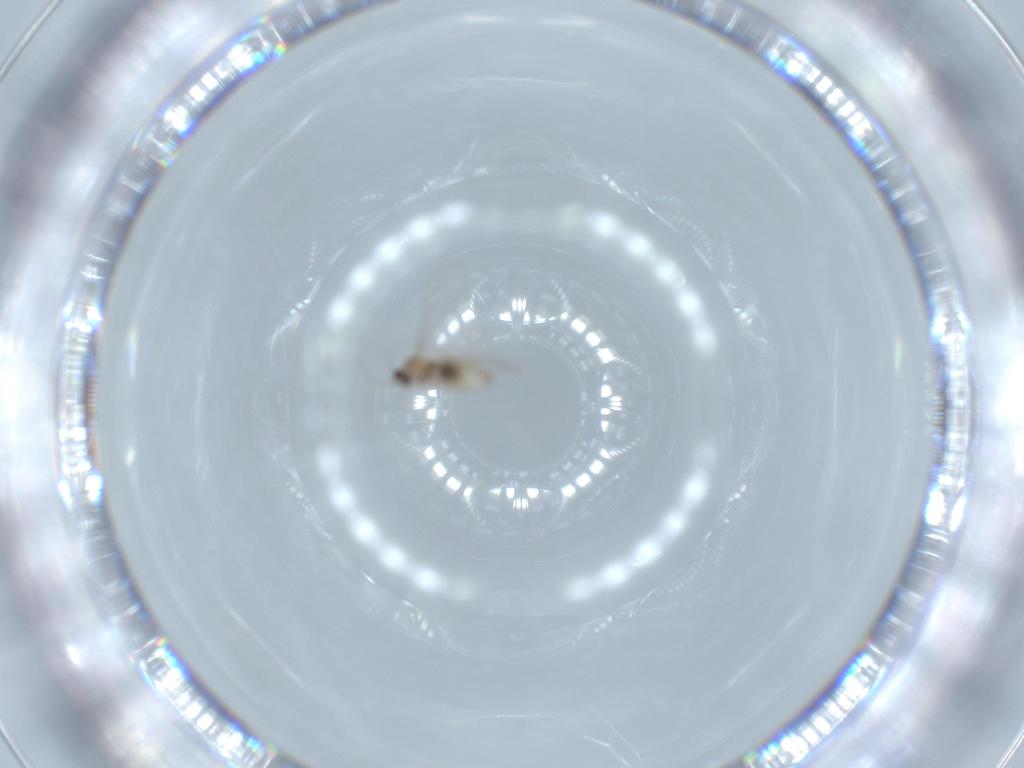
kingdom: Animalia
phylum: Arthropoda
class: Insecta
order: Diptera
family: Cecidomyiidae
